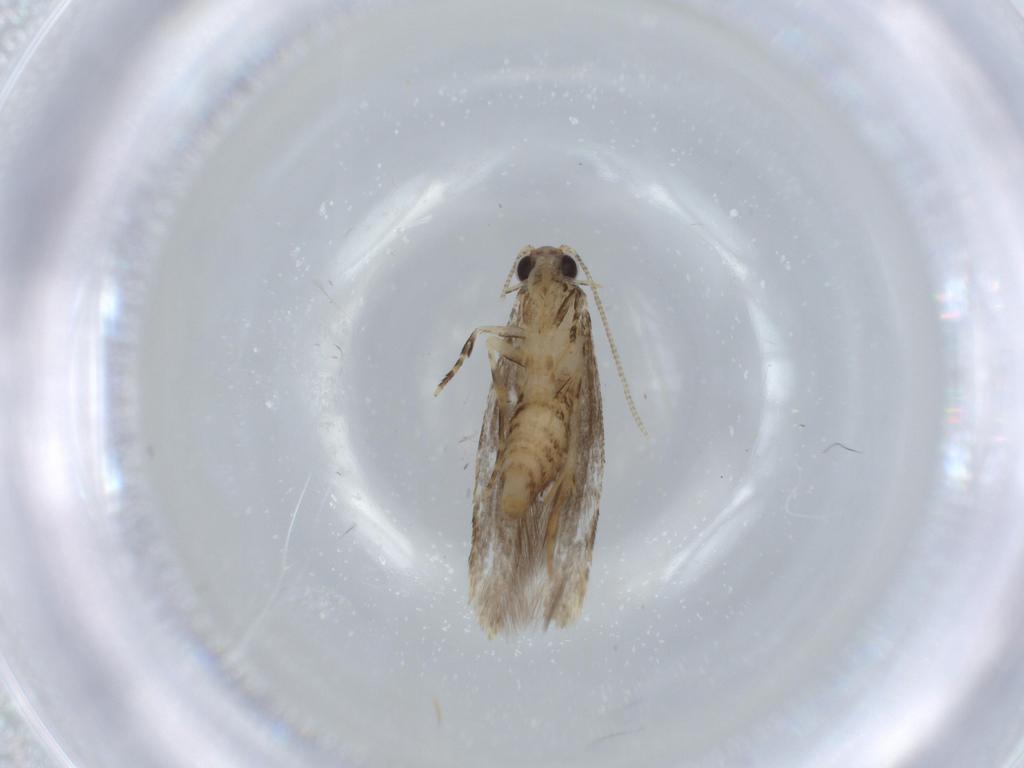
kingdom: Animalia
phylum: Arthropoda
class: Insecta
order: Lepidoptera
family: Tineidae
